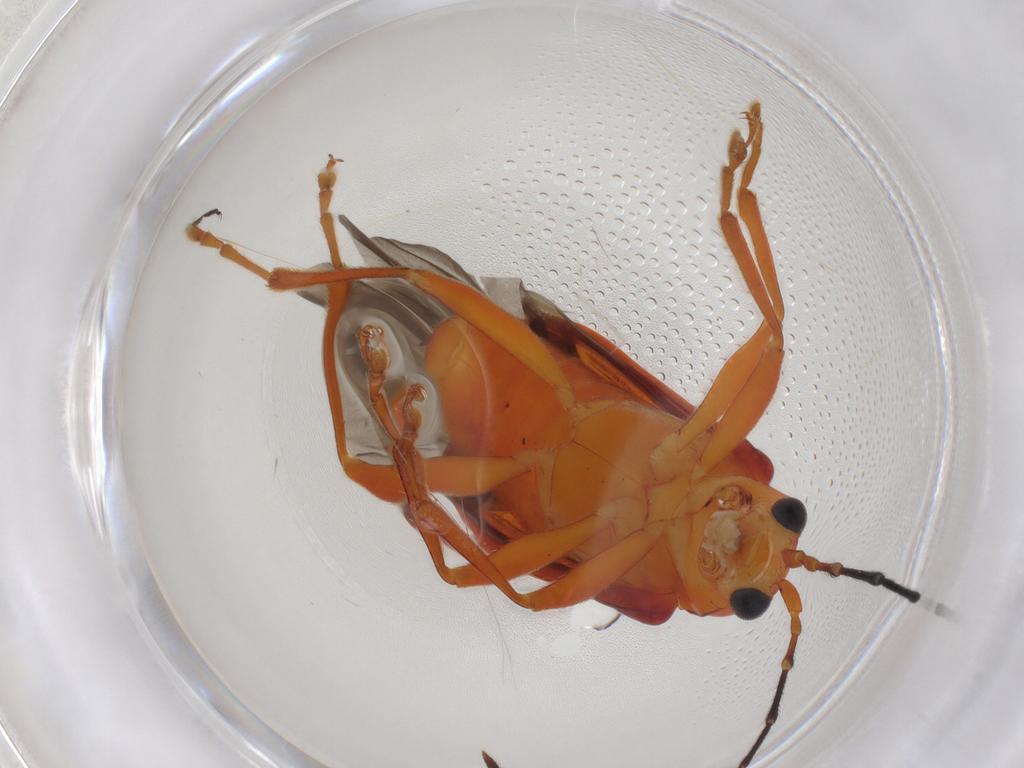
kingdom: Animalia
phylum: Arthropoda
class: Insecta
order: Coleoptera
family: Chrysomelidae
